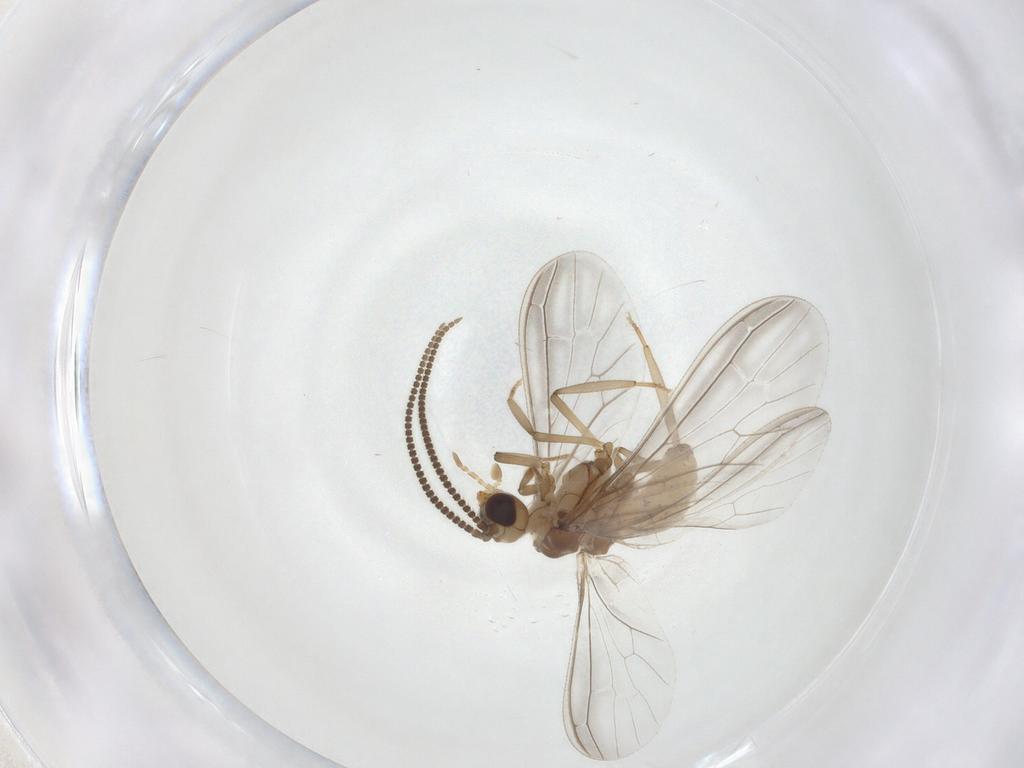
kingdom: Animalia
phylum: Arthropoda
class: Insecta
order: Neuroptera
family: Coniopterygidae
